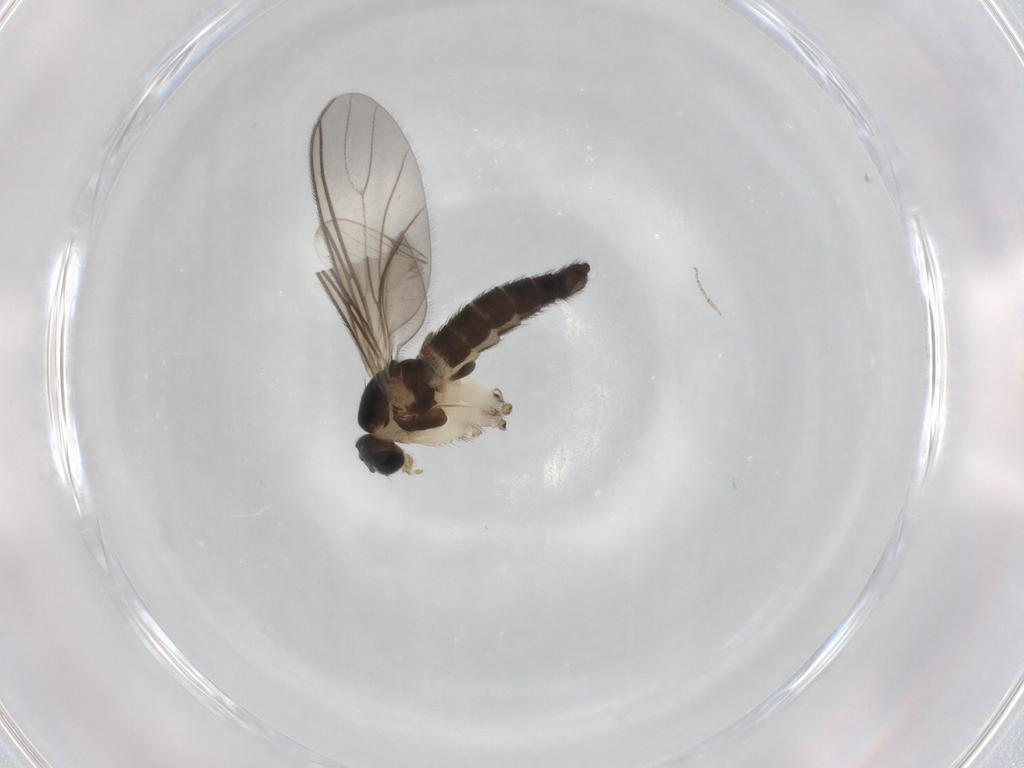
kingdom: Animalia
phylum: Arthropoda
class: Insecta
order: Diptera
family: Sciaridae
